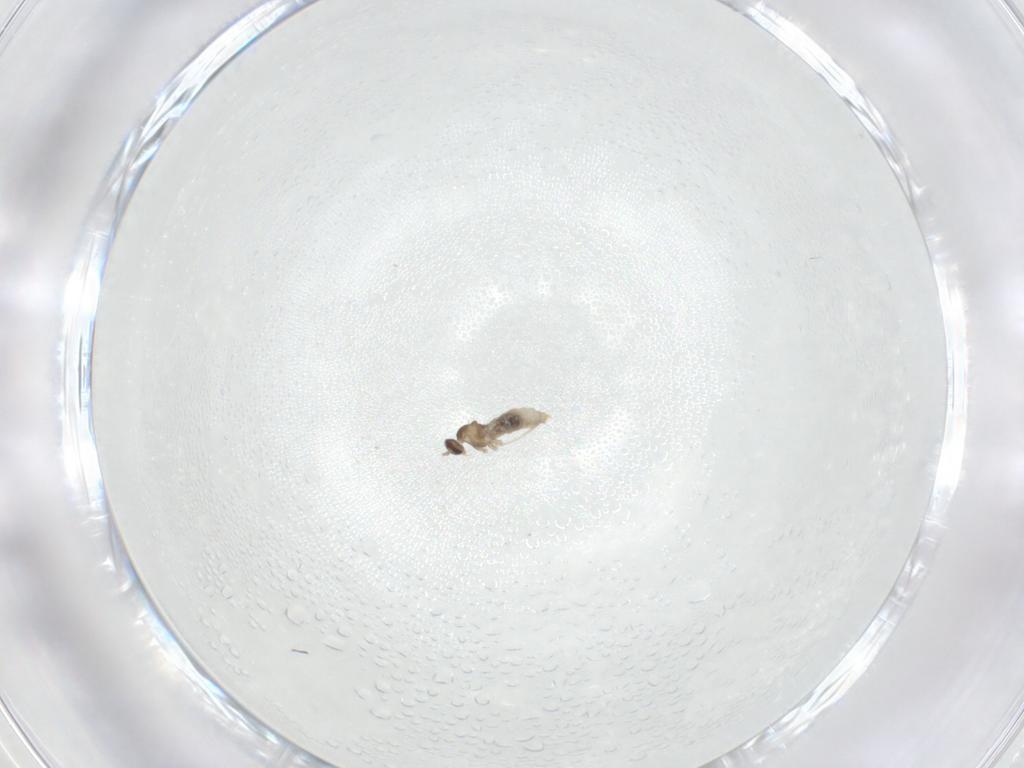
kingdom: Animalia
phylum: Arthropoda
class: Insecta
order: Diptera
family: Cecidomyiidae
